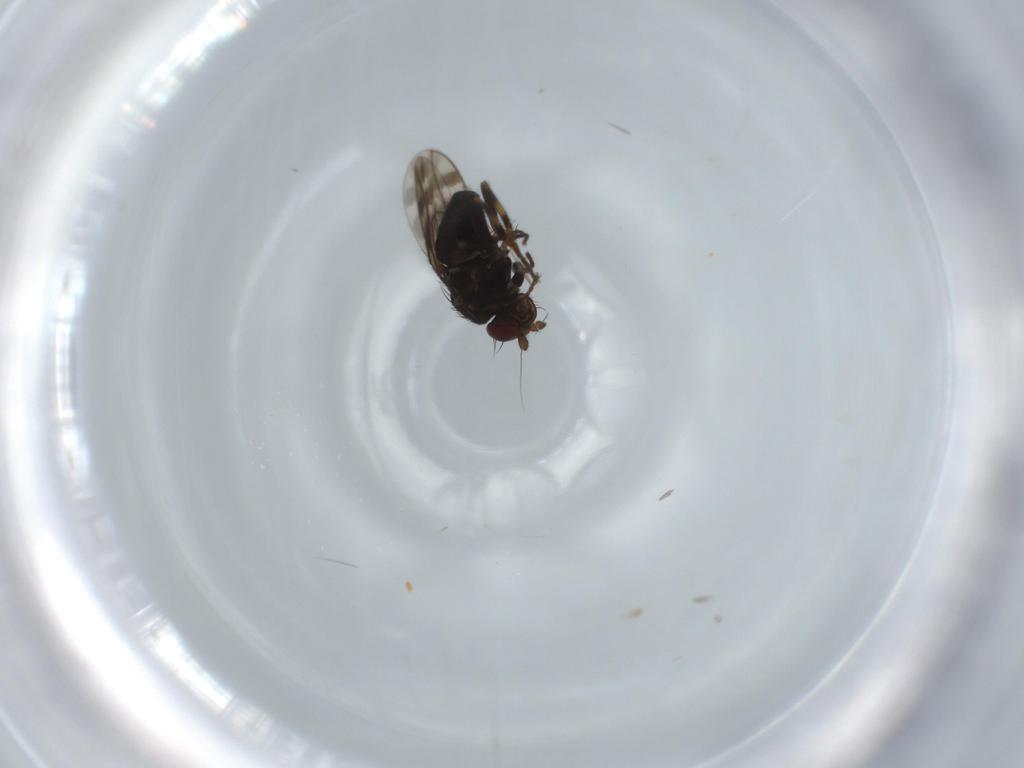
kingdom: Animalia
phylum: Arthropoda
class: Insecta
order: Diptera
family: Sphaeroceridae
